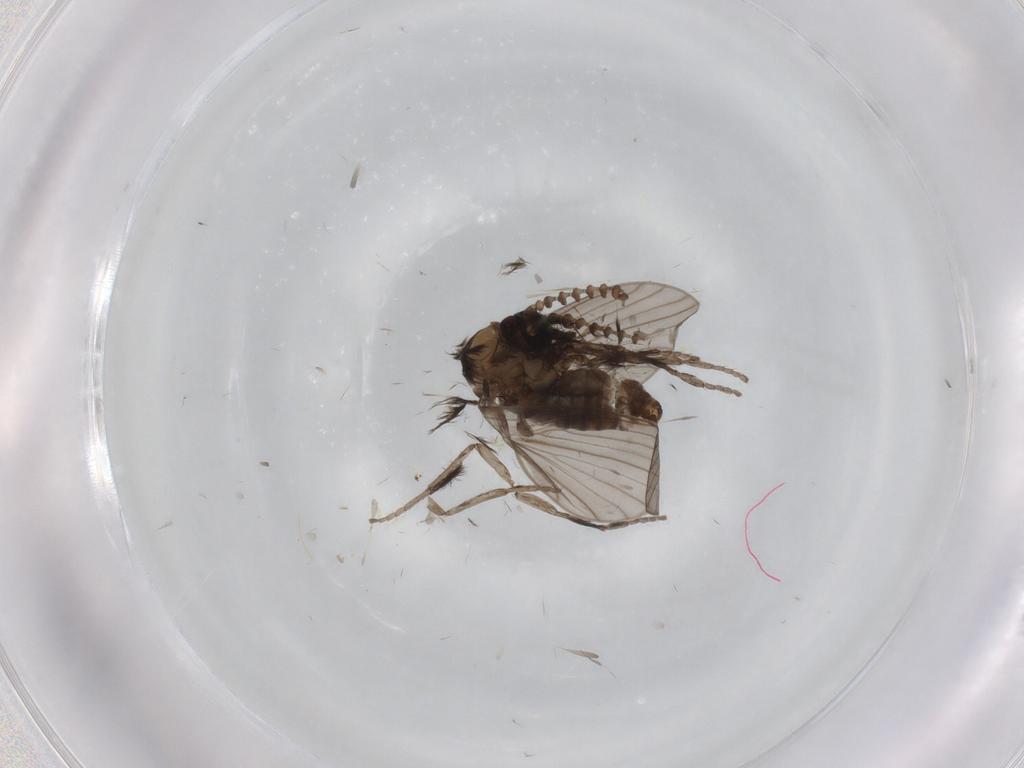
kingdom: Animalia
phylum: Arthropoda
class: Insecta
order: Diptera
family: Psychodidae
